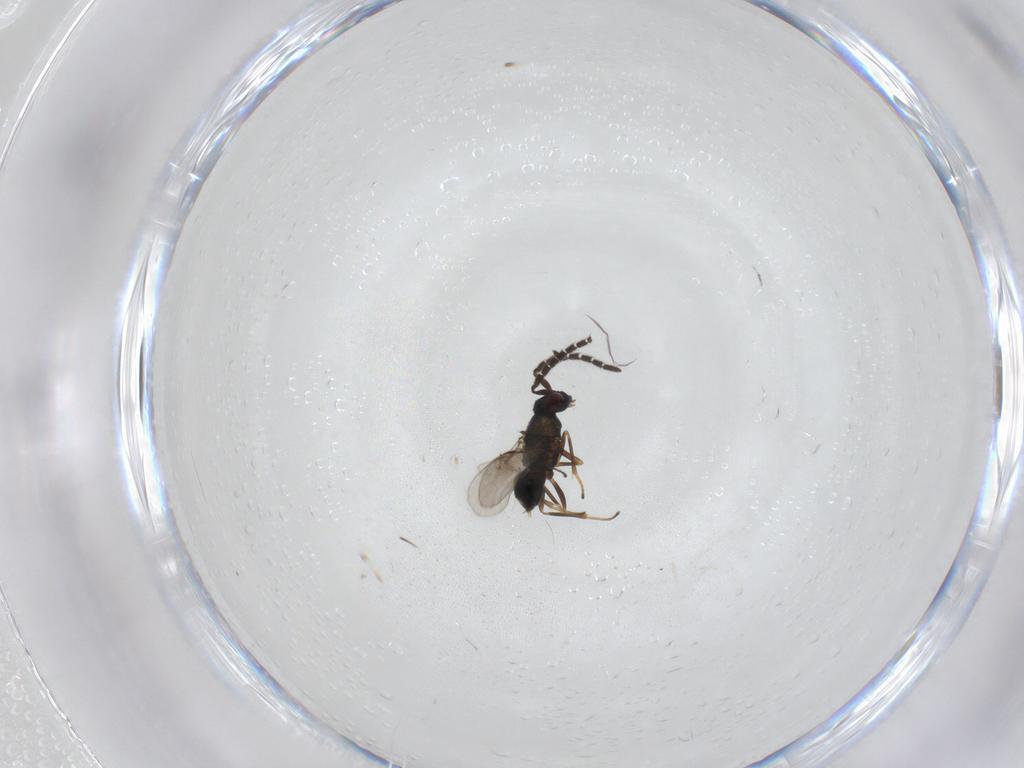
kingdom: Animalia
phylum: Arthropoda
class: Insecta
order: Hymenoptera
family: Encyrtidae
